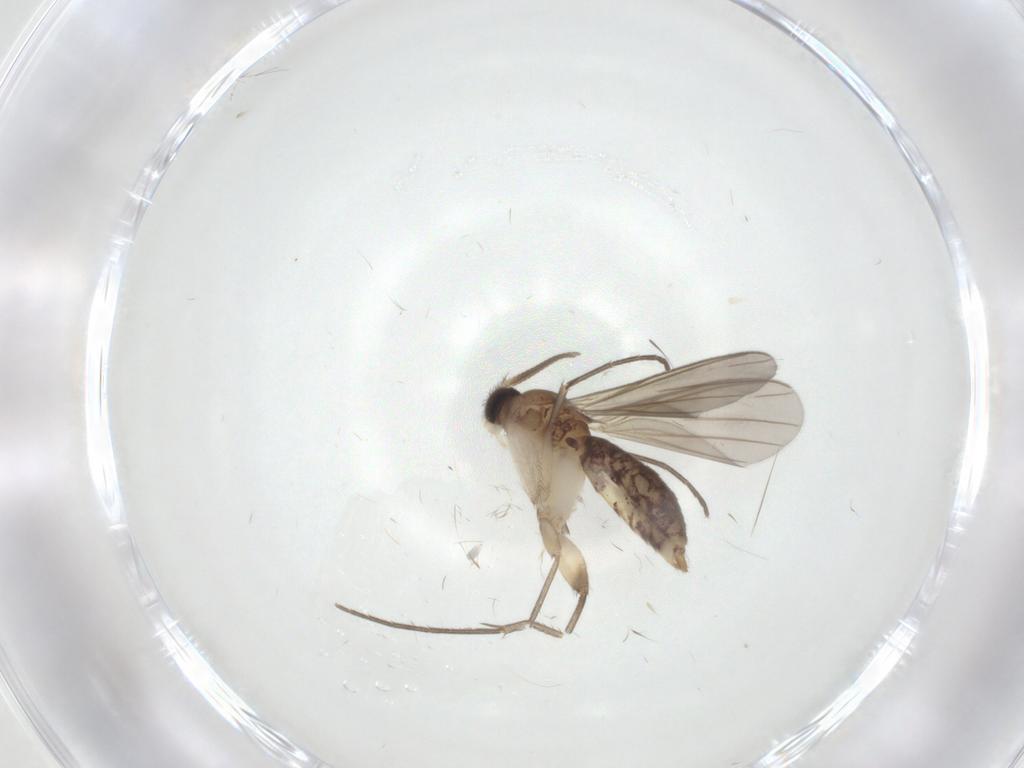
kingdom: Animalia
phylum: Arthropoda
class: Insecta
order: Diptera
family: Mycetophilidae
